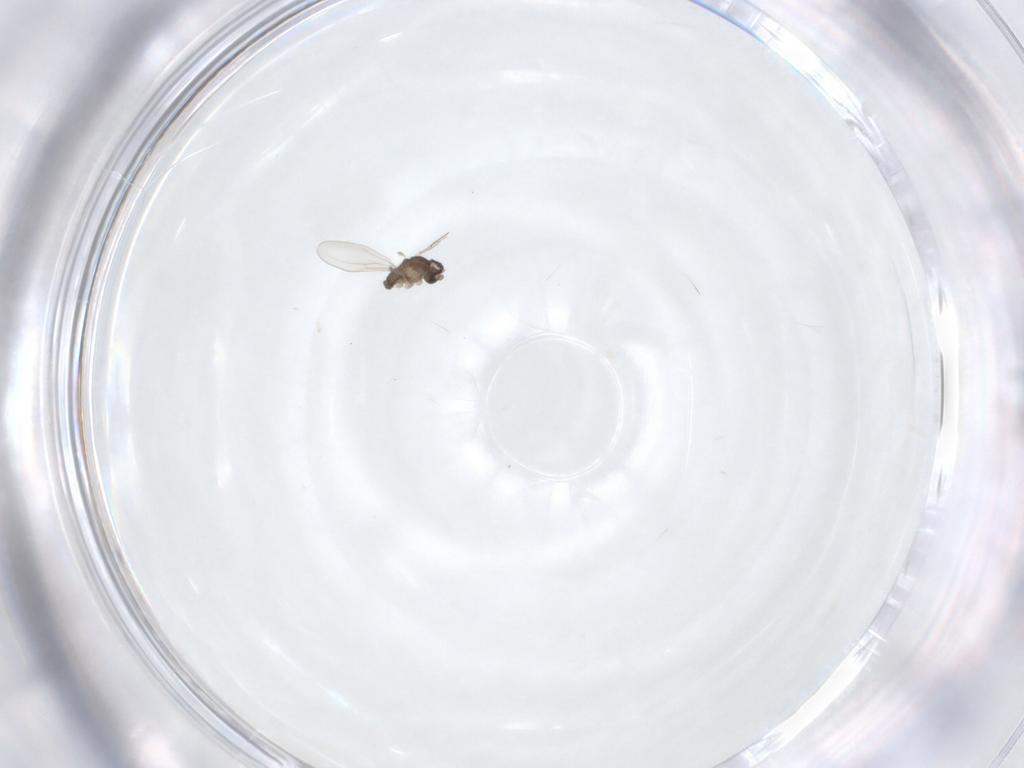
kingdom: Animalia
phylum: Arthropoda
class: Insecta
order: Diptera
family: Cecidomyiidae
